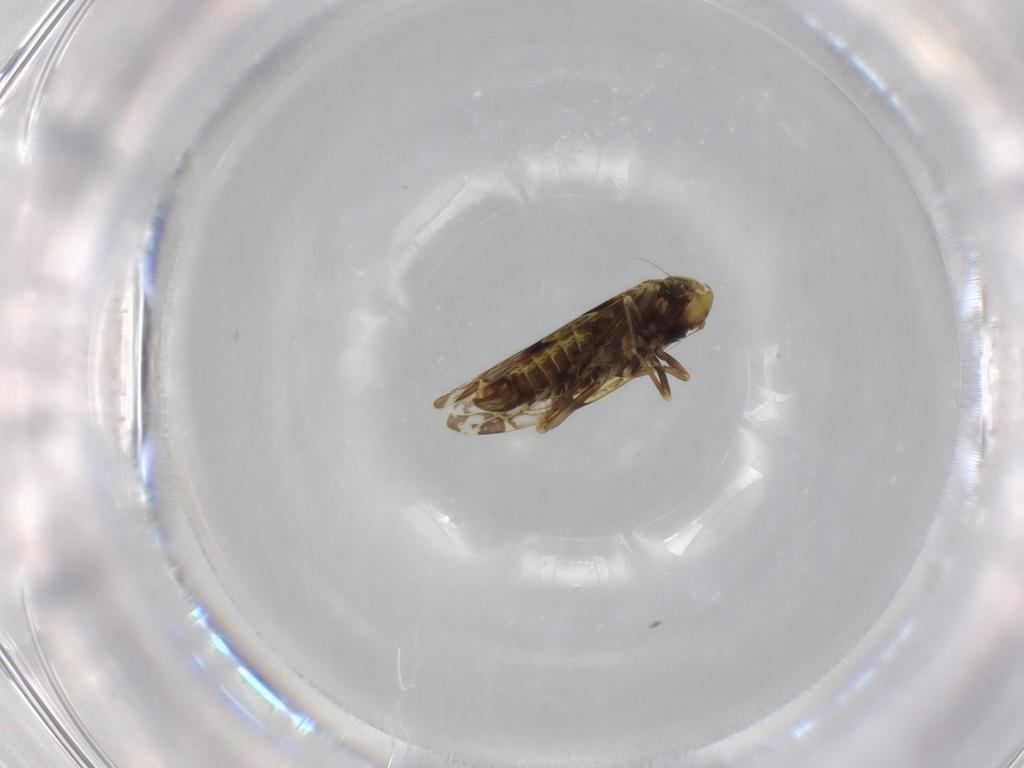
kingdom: Animalia
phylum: Arthropoda
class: Insecta
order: Hemiptera
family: Cicadellidae
